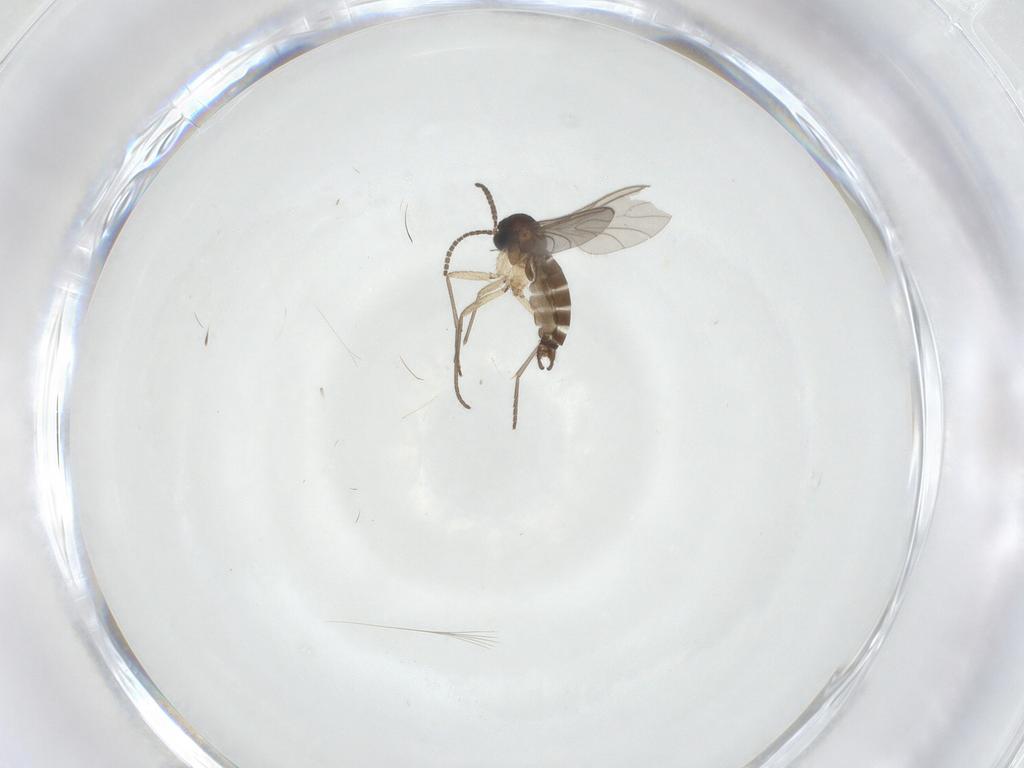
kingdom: Animalia
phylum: Arthropoda
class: Insecta
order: Diptera
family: Sciaridae
